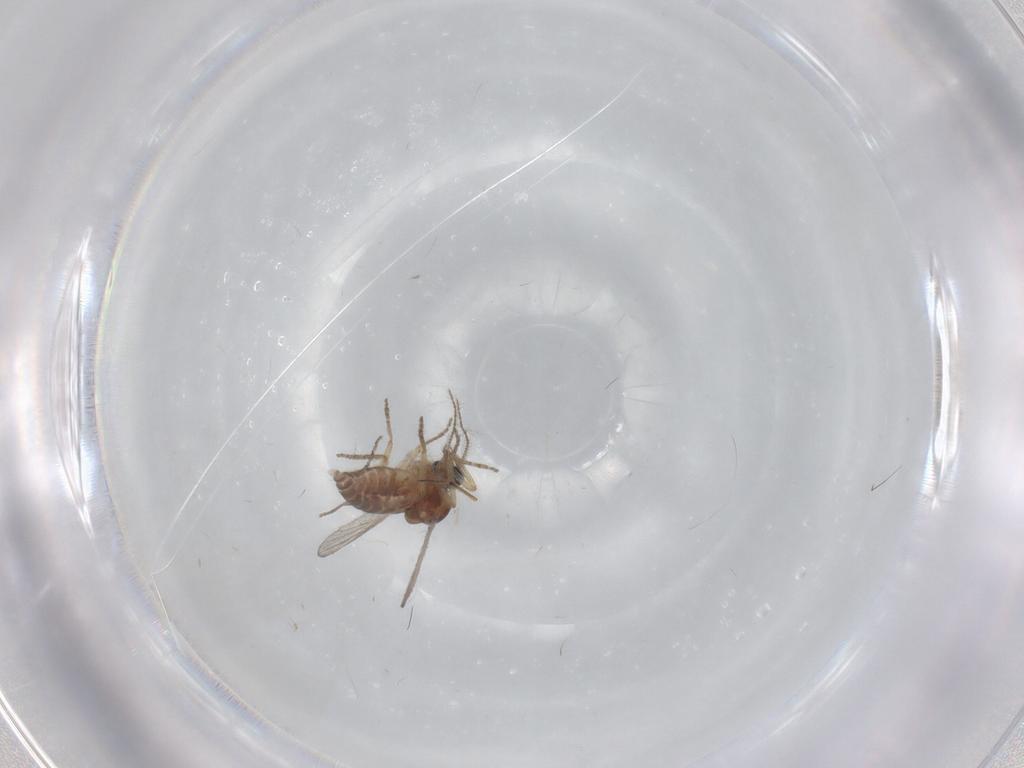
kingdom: Animalia
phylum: Arthropoda
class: Insecta
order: Diptera
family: Ceratopogonidae
